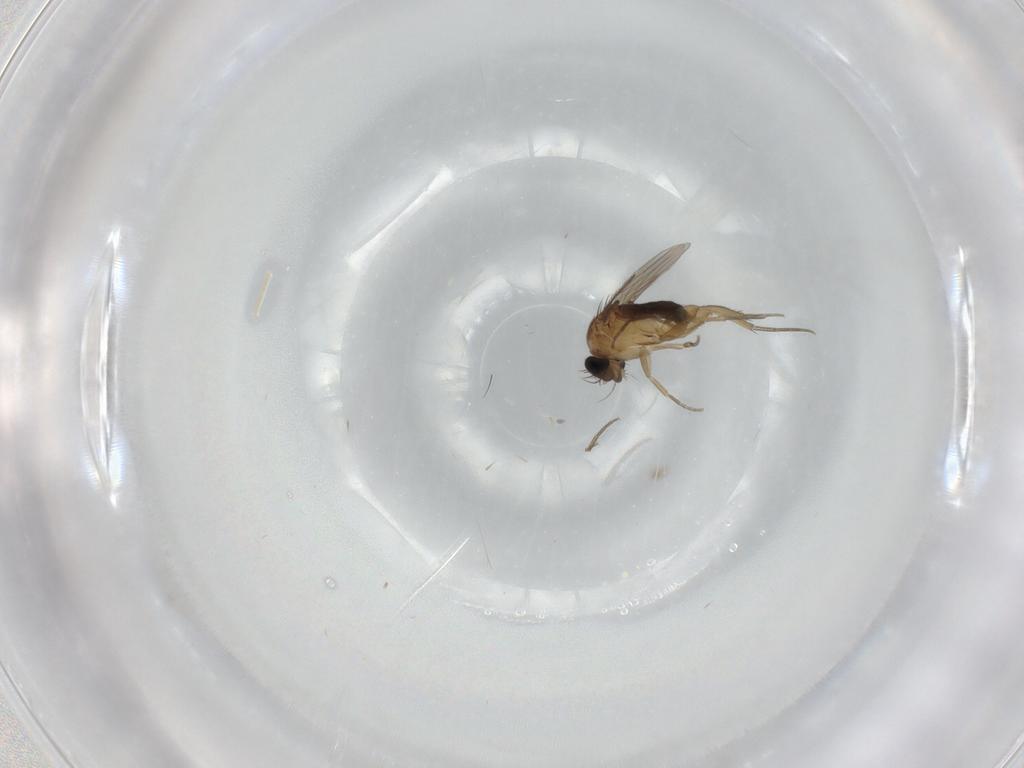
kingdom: Animalia
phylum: Arthropoda
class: Insecta
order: Diptera
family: Phoridae
